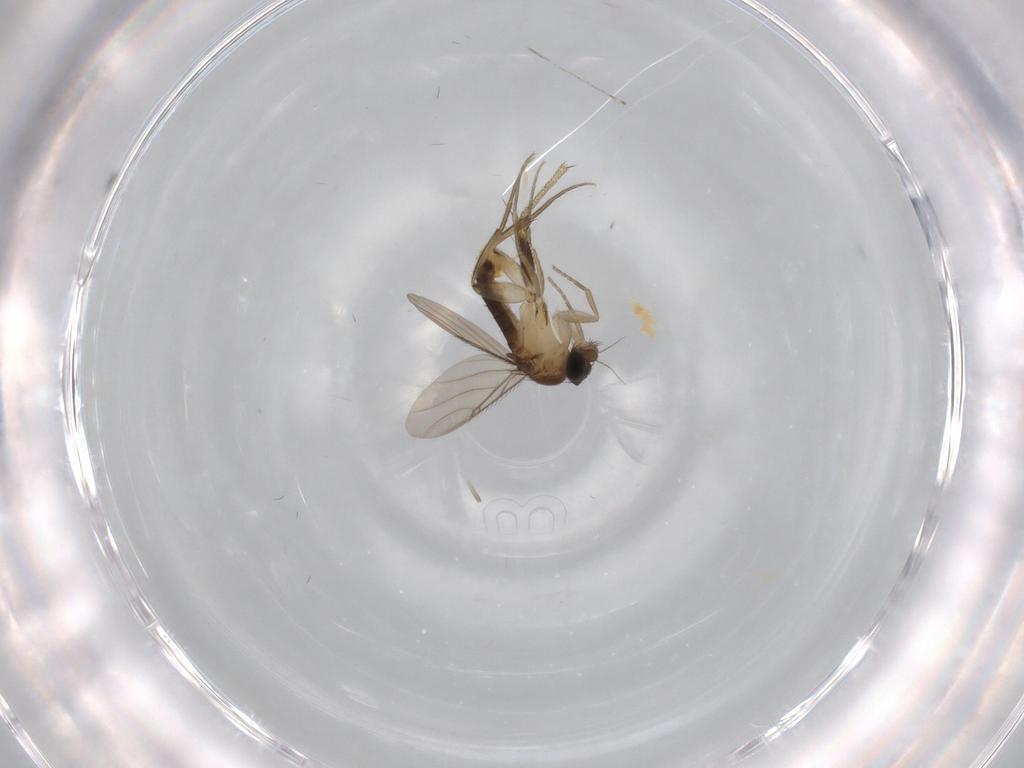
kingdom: Animalia
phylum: Arthropoda
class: Insecta
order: Diptera
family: Phoridae
